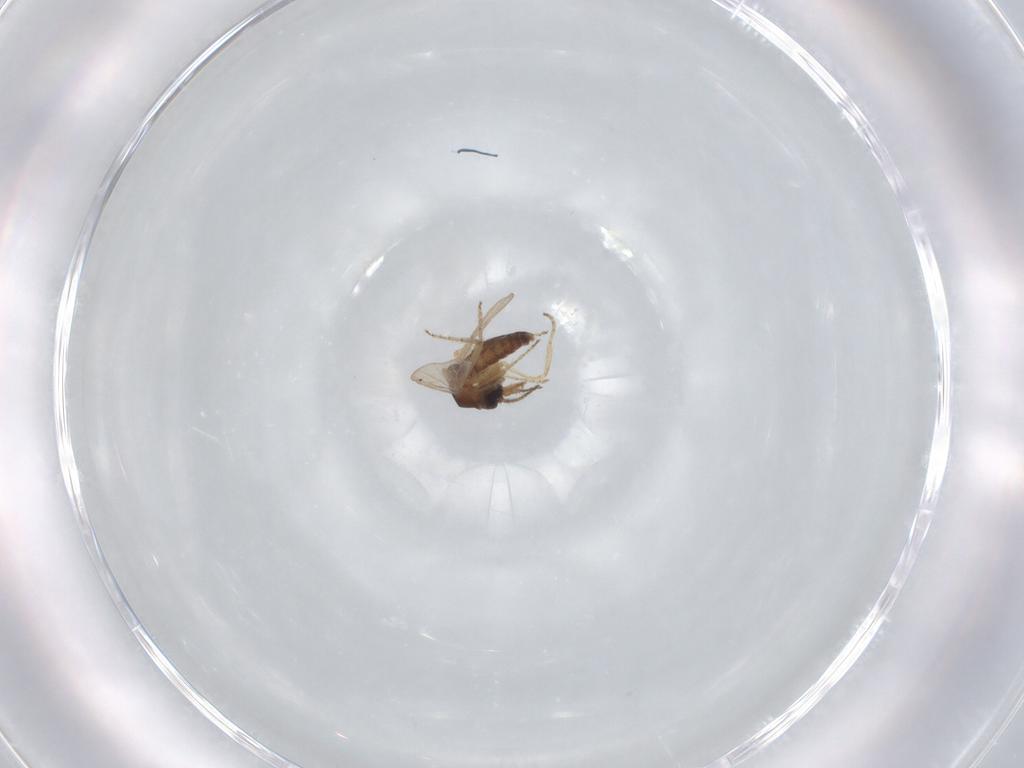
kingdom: Animalia
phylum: Arthropoda
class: Insecta
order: Diptera
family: Ceratopogonidae
